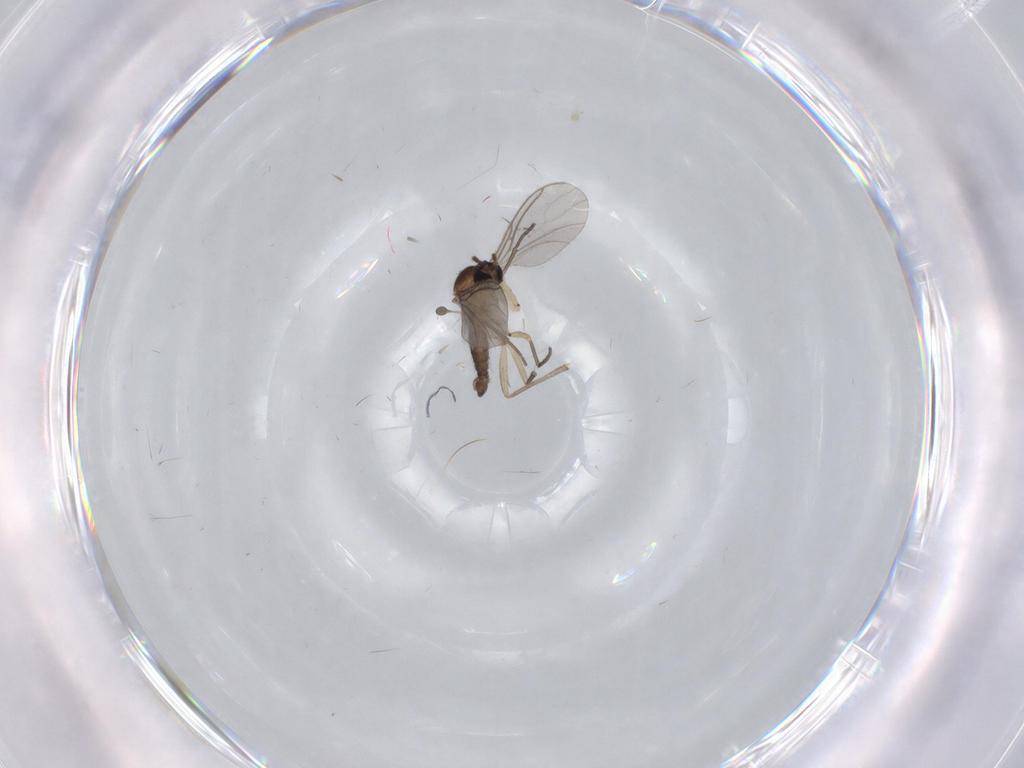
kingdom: Animalia
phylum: Arthropoda
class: Insecta
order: Diptera
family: Sciaridae
